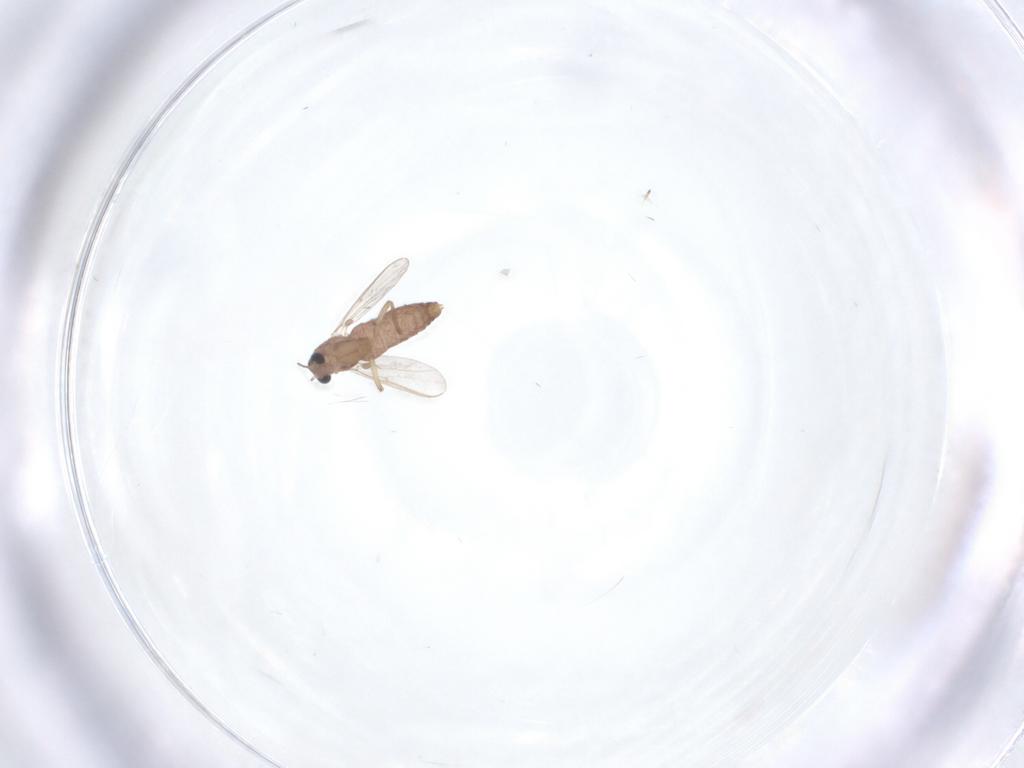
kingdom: Animalia
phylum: Arthropoda
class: Insecta
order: Diptera
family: Chironomidae
